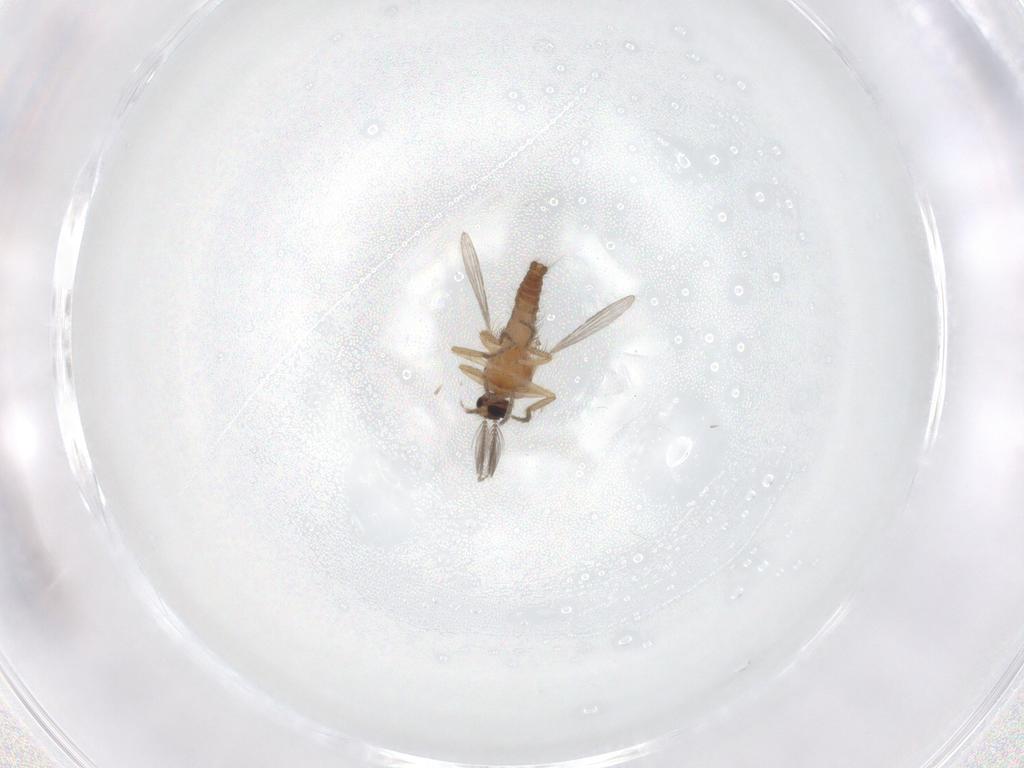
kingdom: Animalia
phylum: Arthropoda
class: Insecta
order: Diptera
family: Ceratopogonidae
